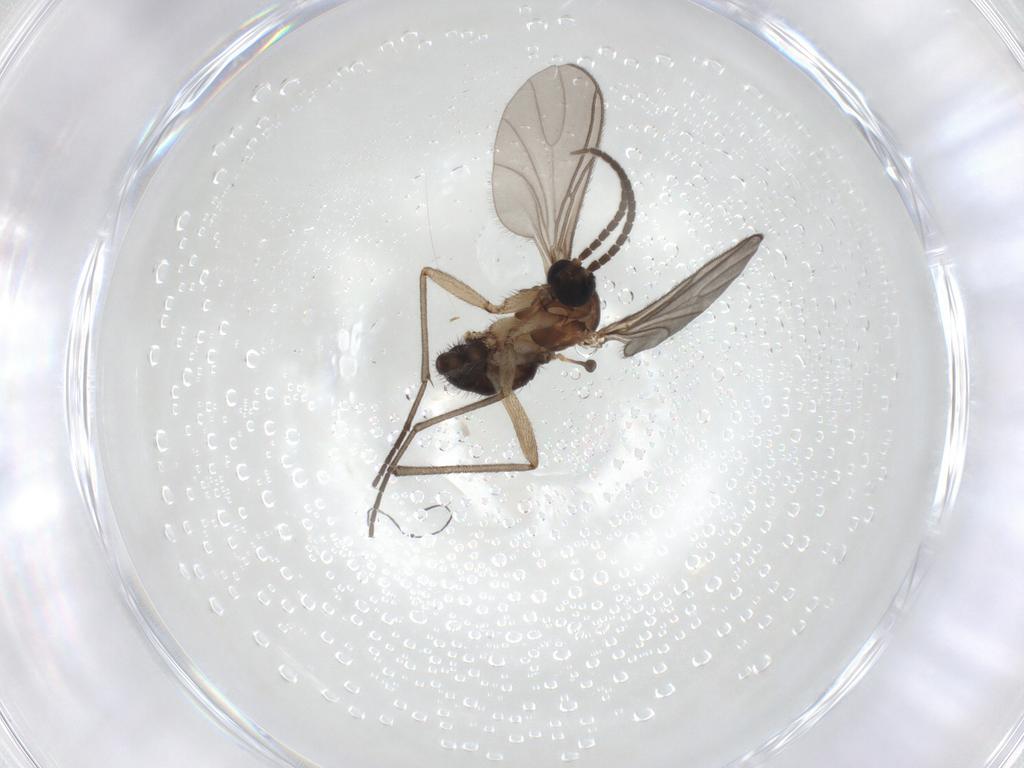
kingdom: Animalia
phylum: Arthropoda
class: Insecta
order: Diptera
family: Sciaridae
